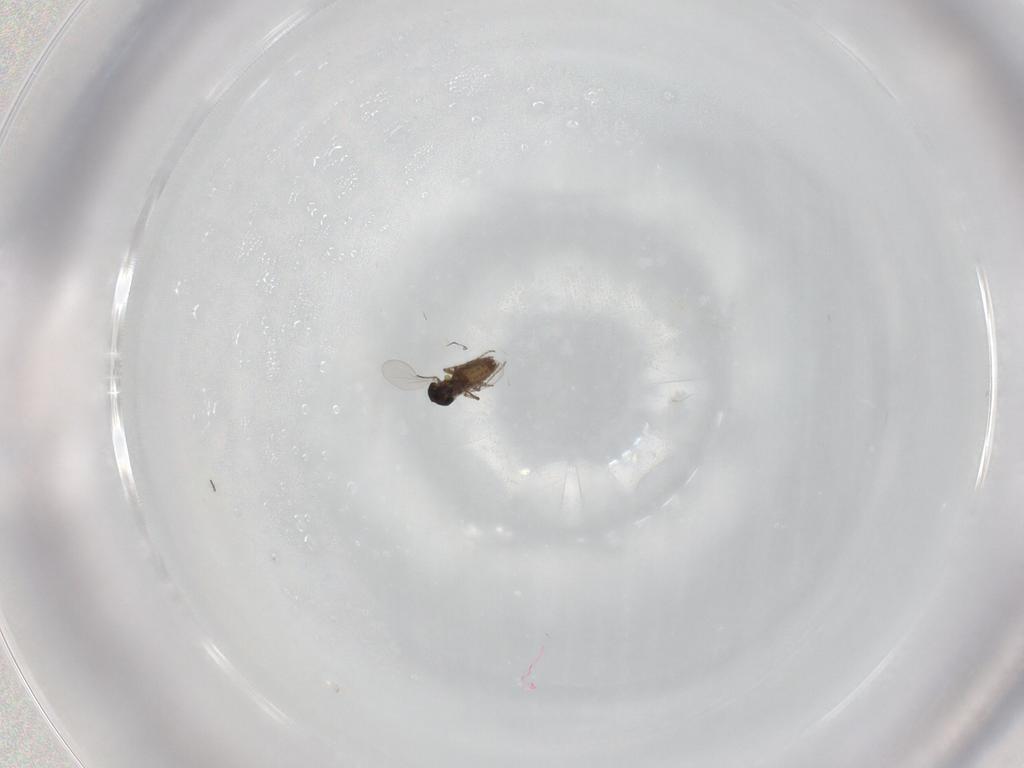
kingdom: Animalia
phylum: Arthropoda
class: Insecta
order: Diptera
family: Ceratopogonidae
